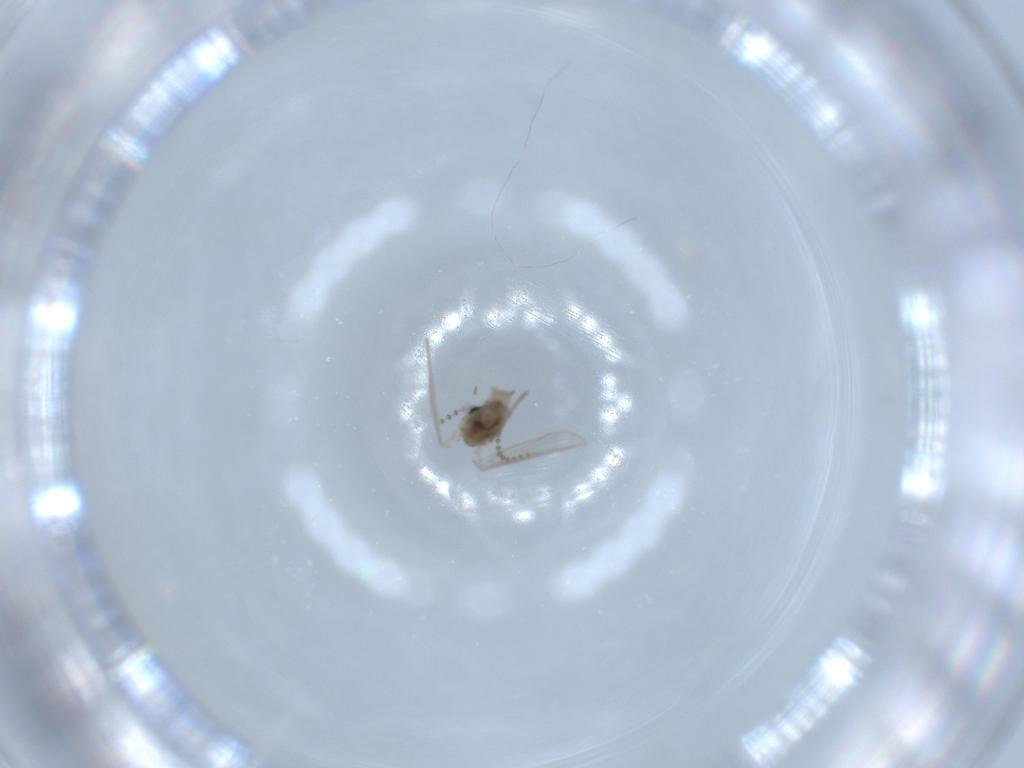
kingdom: Animalia
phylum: Arthropoda
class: Insecta
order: Diptera
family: Psychodidae
